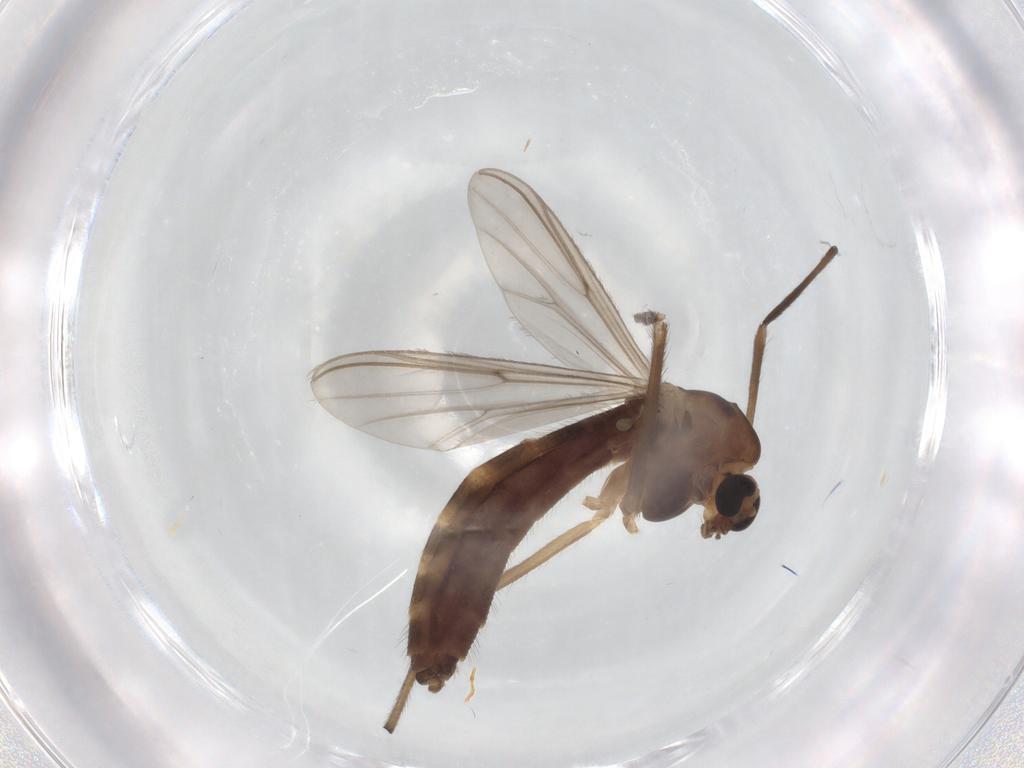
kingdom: Animalia
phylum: Arthropoda
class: Insecta
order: Diptera
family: Chironomidae
